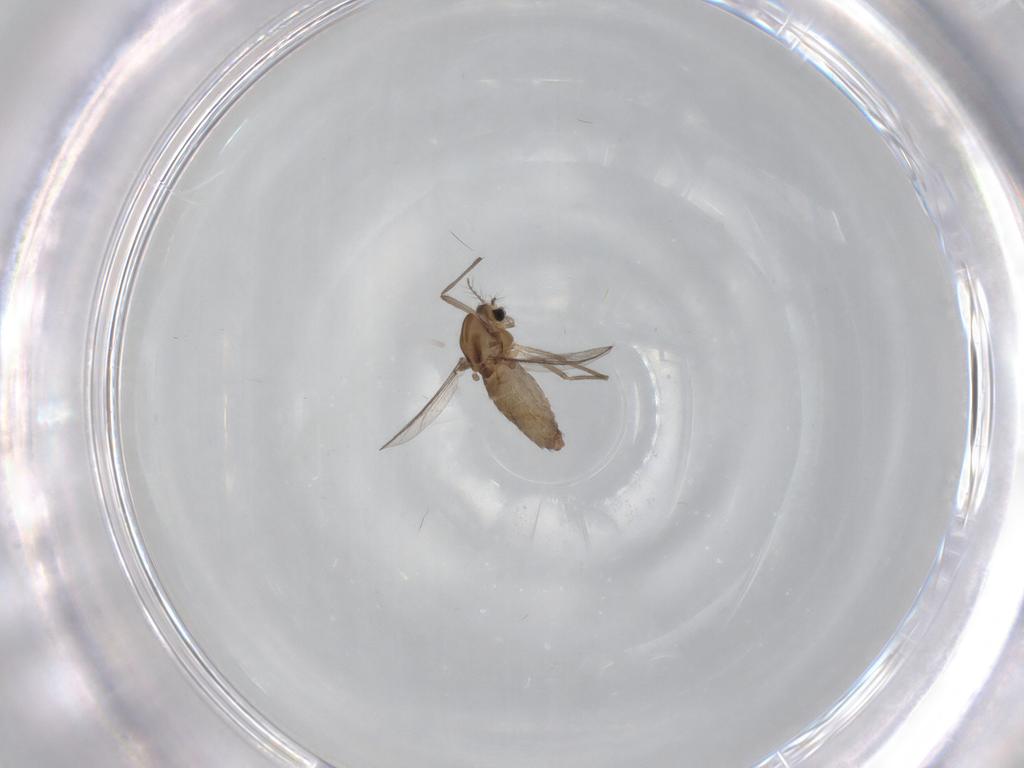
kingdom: Animalia
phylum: Arthropoda
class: Insecta
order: Diptera
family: Chironomidae
